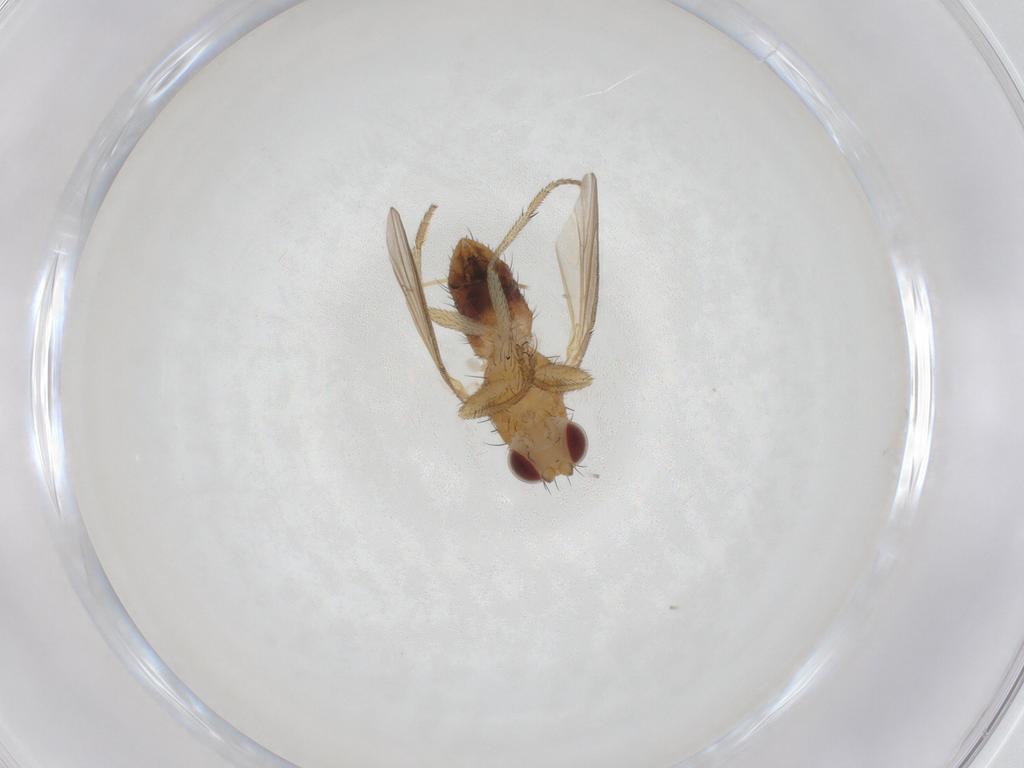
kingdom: Animalia
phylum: Arthropoda
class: Insecta
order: Diptera
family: Heleomyzidae
